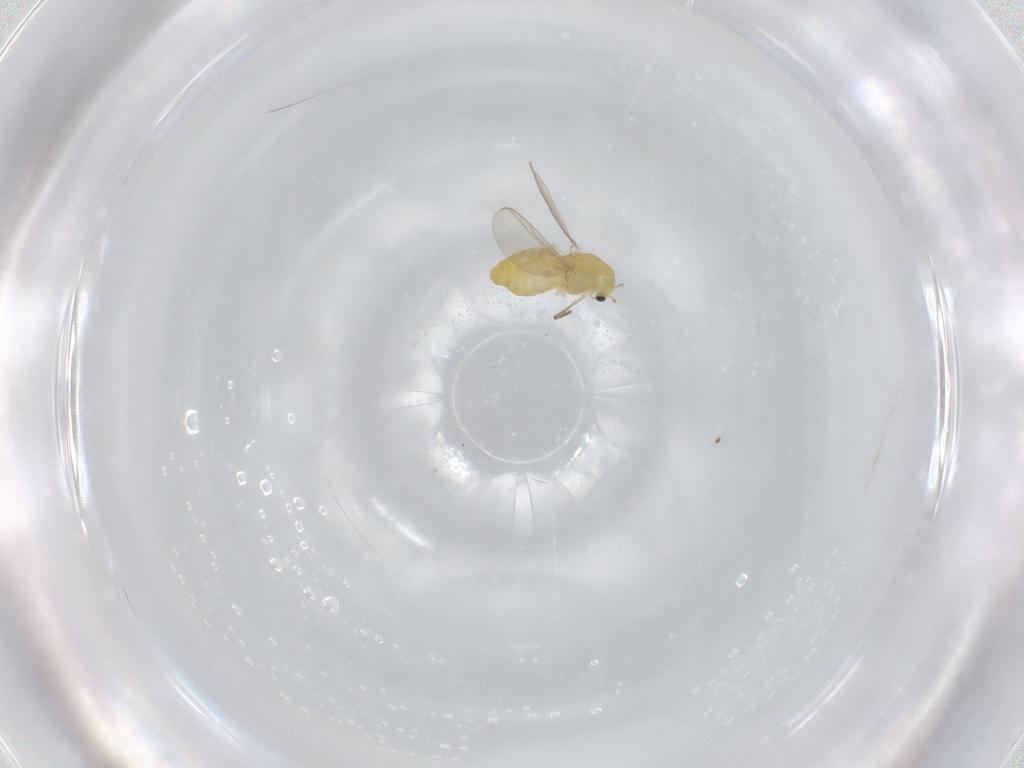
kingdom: Animalia
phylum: Arthropoda
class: Insecta
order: Diptera
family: Chironomidae
